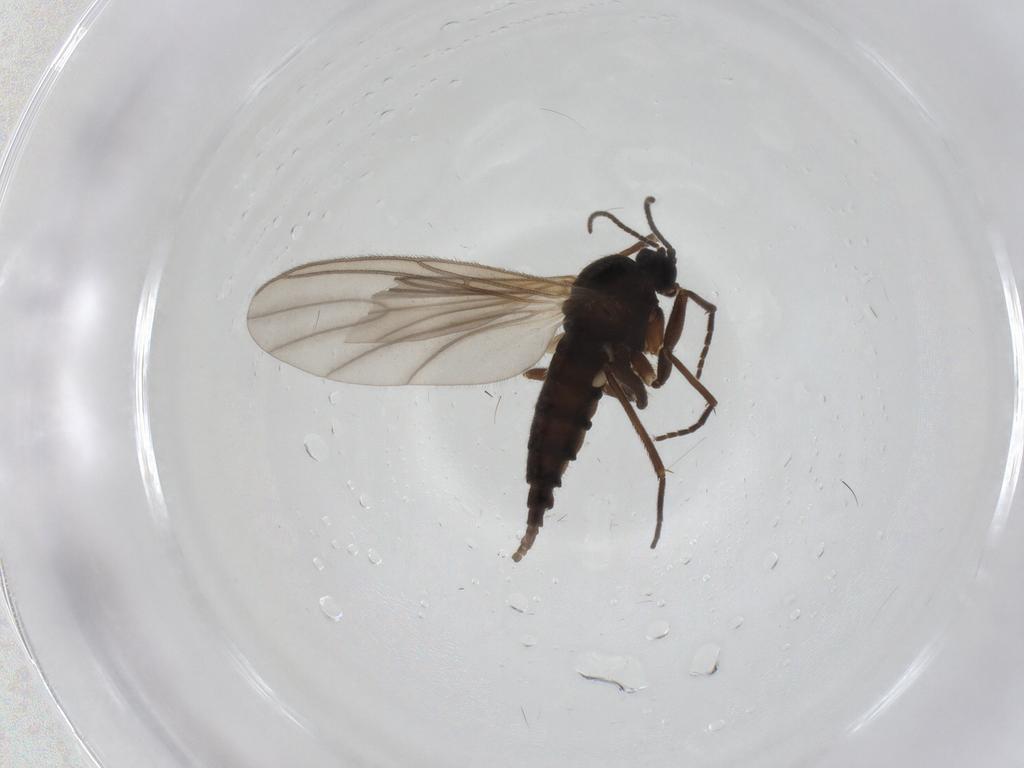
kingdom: Animalia
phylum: Arthropoda
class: Insecta
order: Diptera
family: Sciaridae
